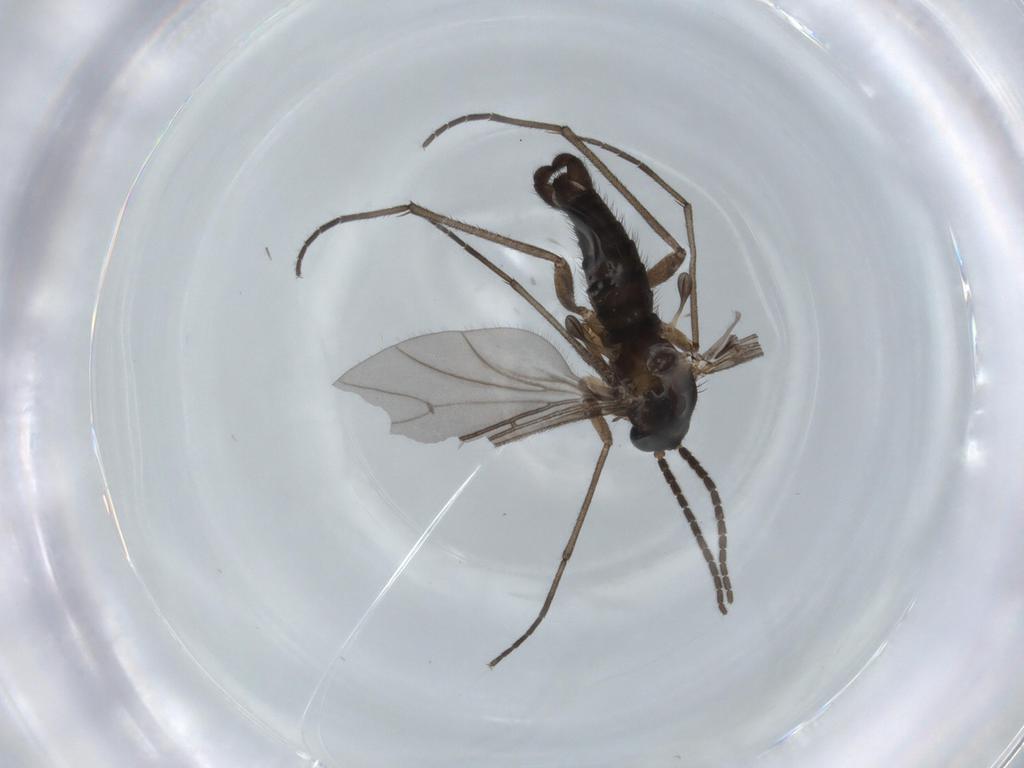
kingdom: Animalia
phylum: Arthropoda
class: Insecta
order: Diptera
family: Sciaridae
